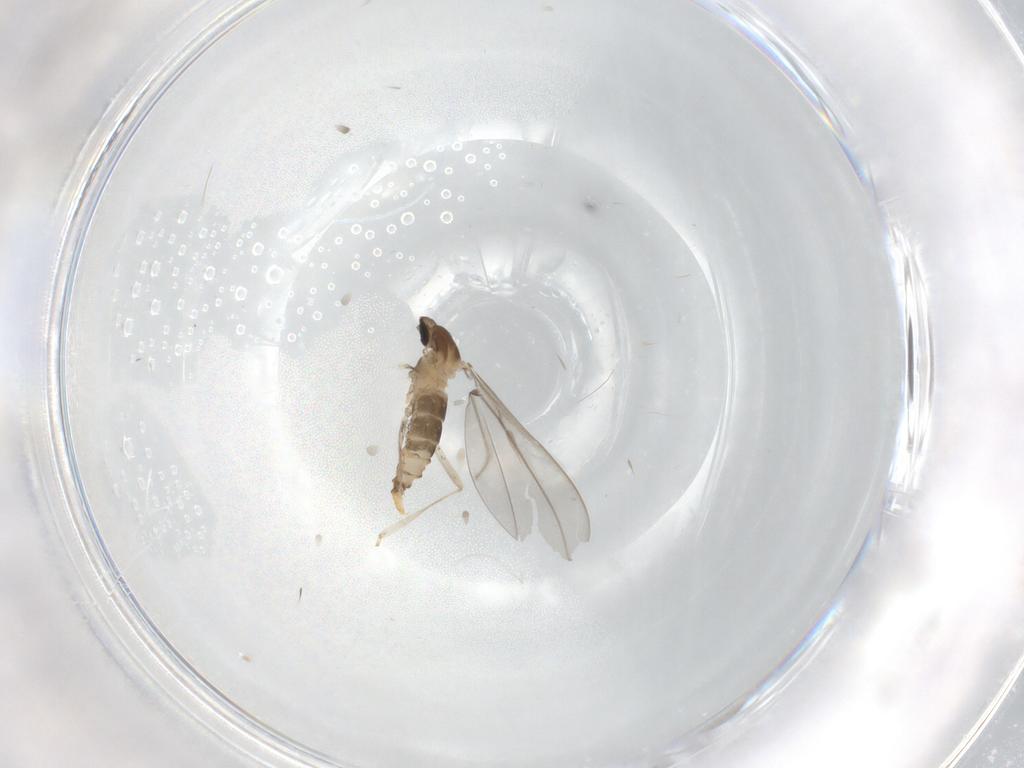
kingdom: Animalia
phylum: Arthropoda
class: Insecta
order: Diptera
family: Cecidomyiidae
